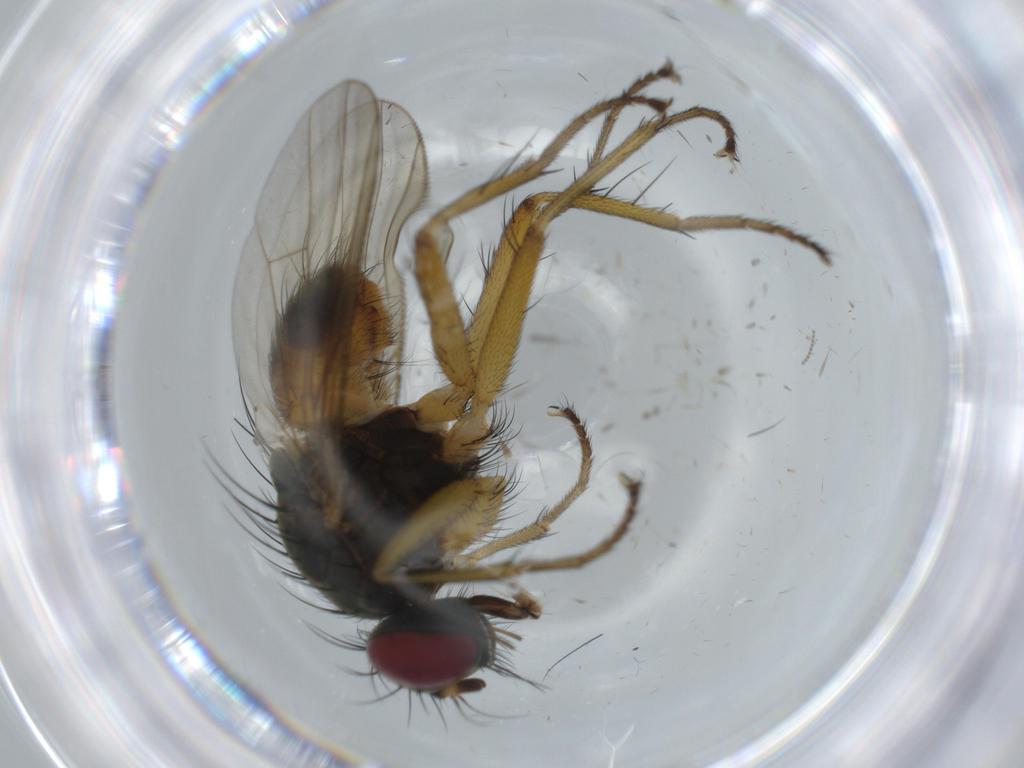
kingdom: Animalia
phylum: Arthropoda
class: Insecta
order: Diptera
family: Muscidae
